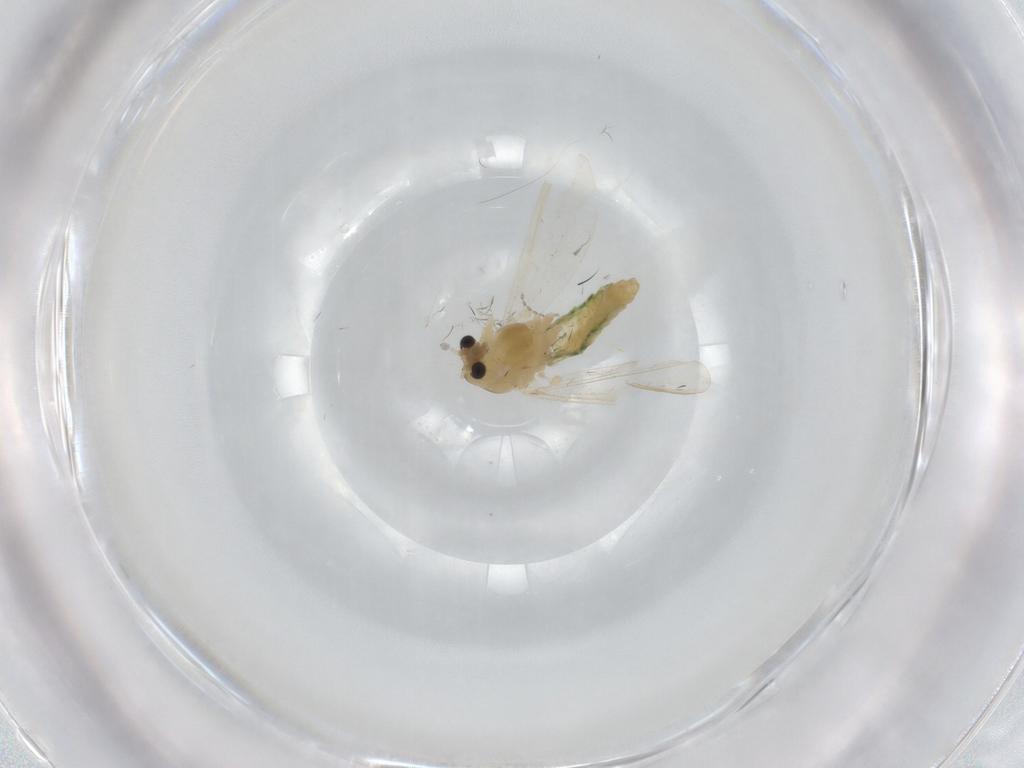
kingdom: Animalia
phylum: Arthropoda
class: Insecta
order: Diptera
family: Chironomidae
